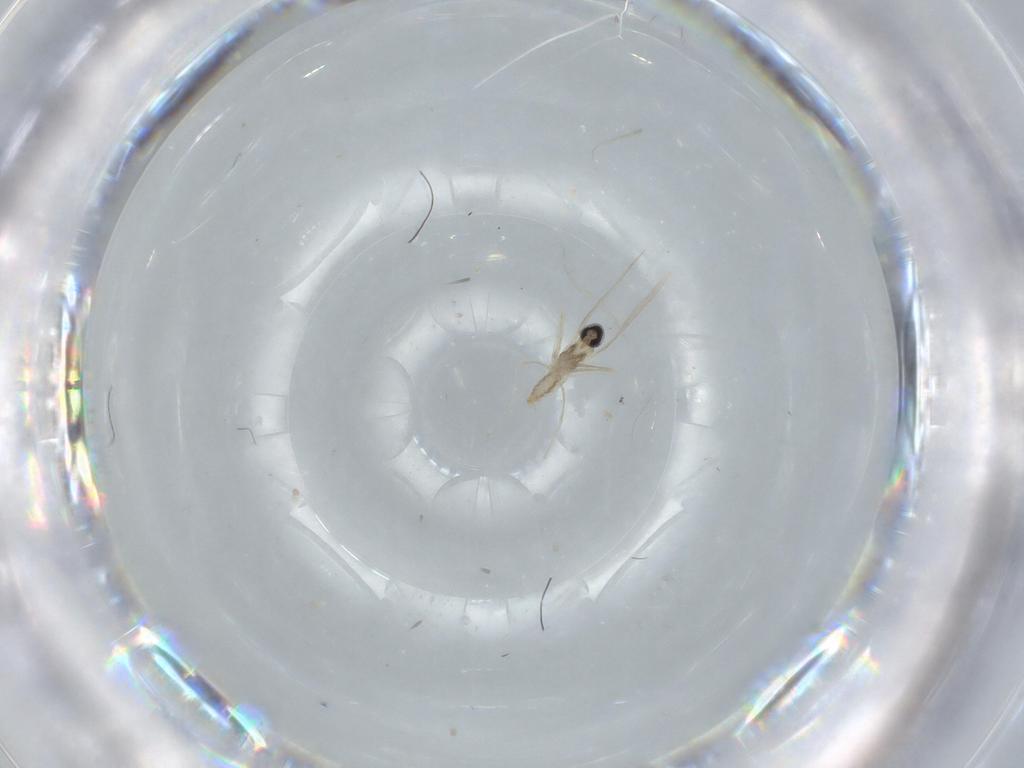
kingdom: Animalia
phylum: Arthropoda
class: Insecta
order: Diptera
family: Cecidomyiidae
